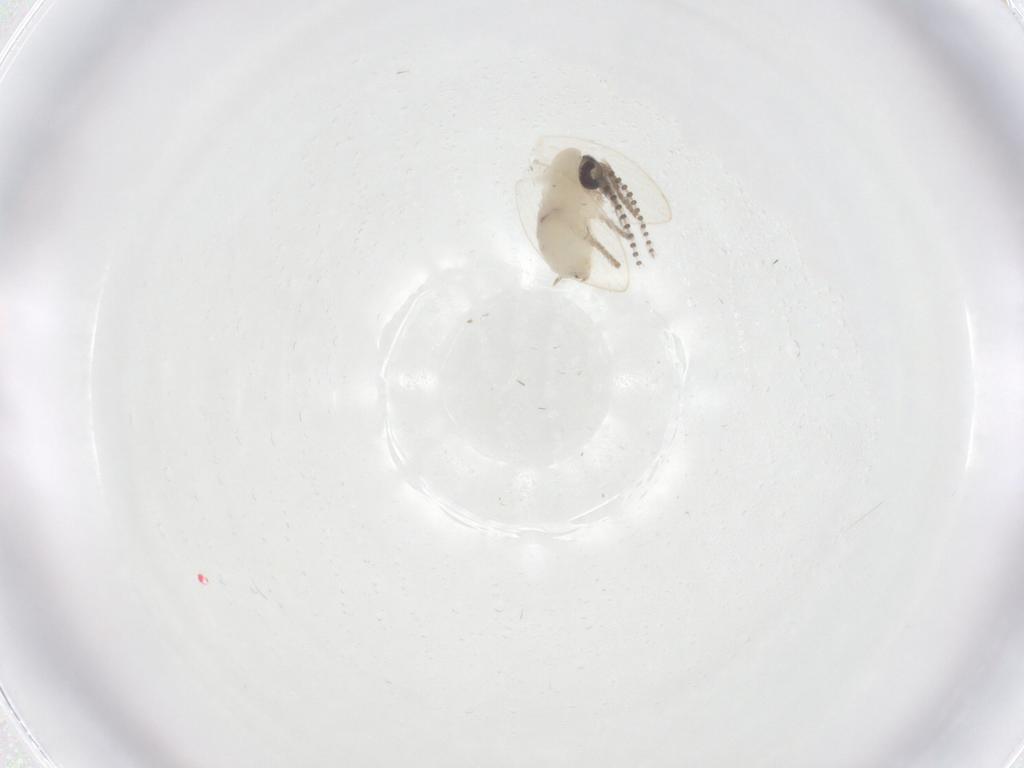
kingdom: Animalia
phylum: Arthropoda
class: Insecta
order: Diptera
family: Psychodidae
